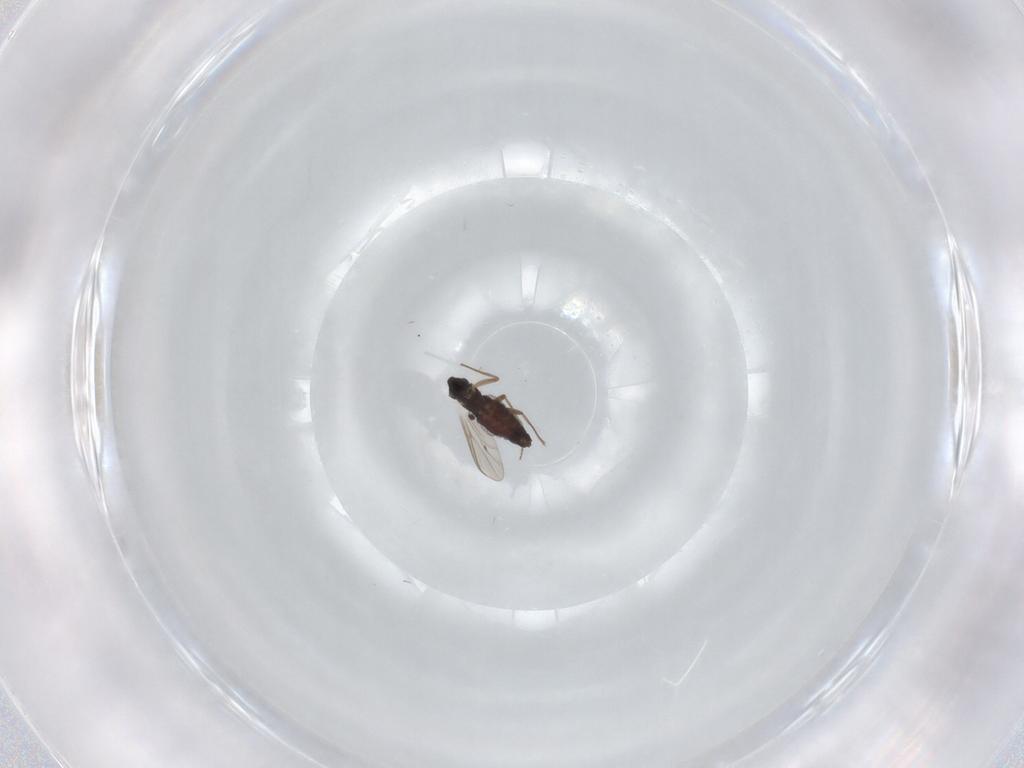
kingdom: Animalia
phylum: Arthropoda
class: Insecta
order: Diptera
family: Chironomidae
